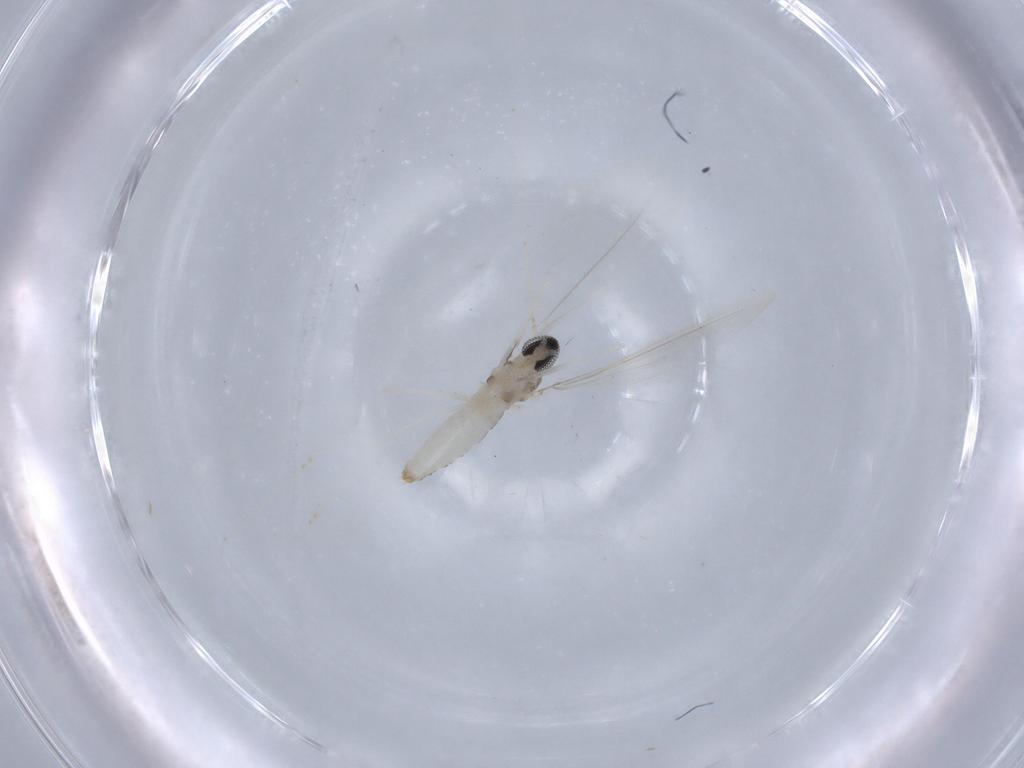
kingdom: Animalia
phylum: Arthropoda
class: Insecta
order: Diptera
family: Cecidomyiidae
